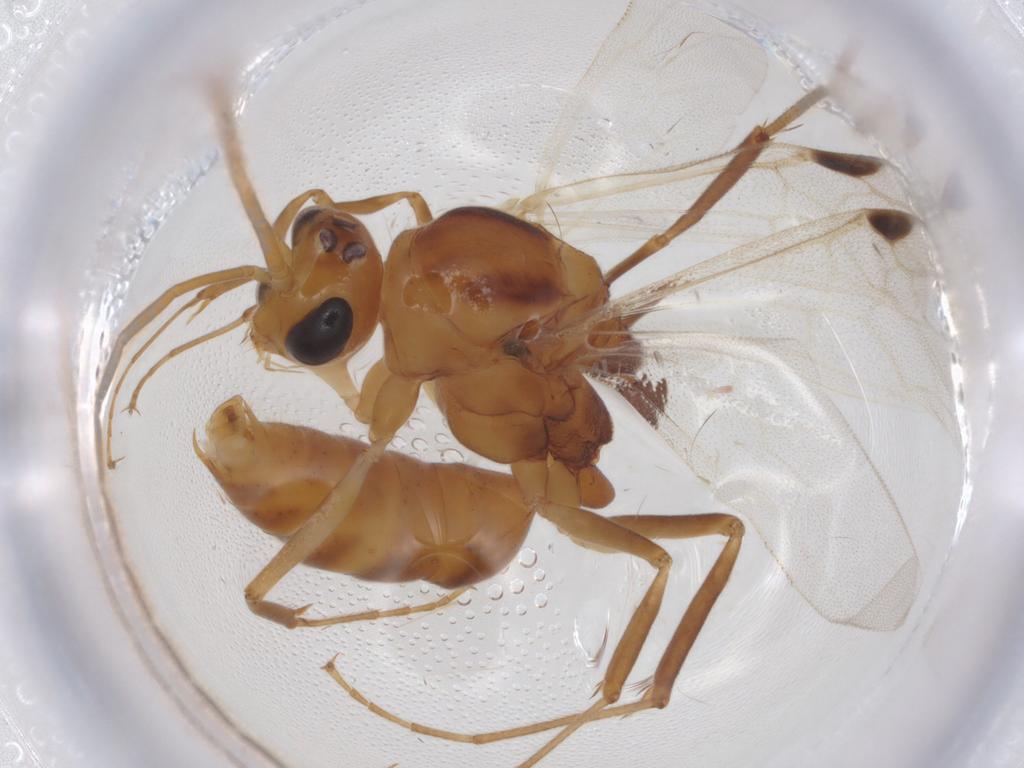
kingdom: Animalia
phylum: Arthropoda
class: Insecta
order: Hymenoptera
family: Formicidae
